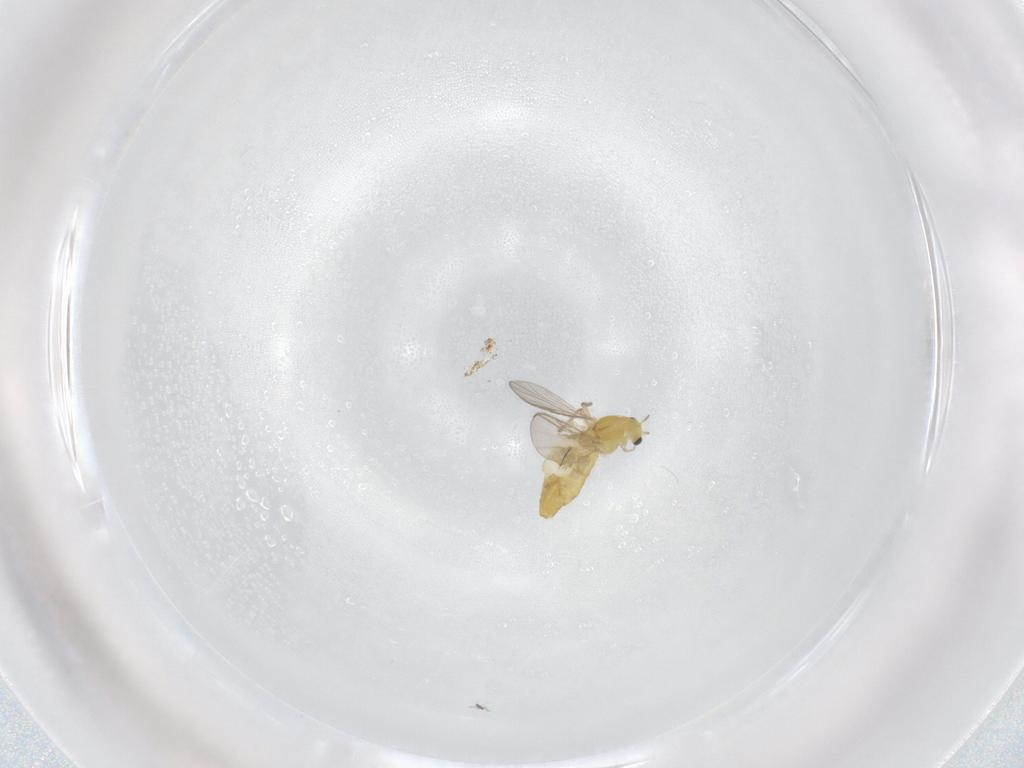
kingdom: Animalia
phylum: Arthropoda
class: Insecta
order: Diptera
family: Chironomidae
